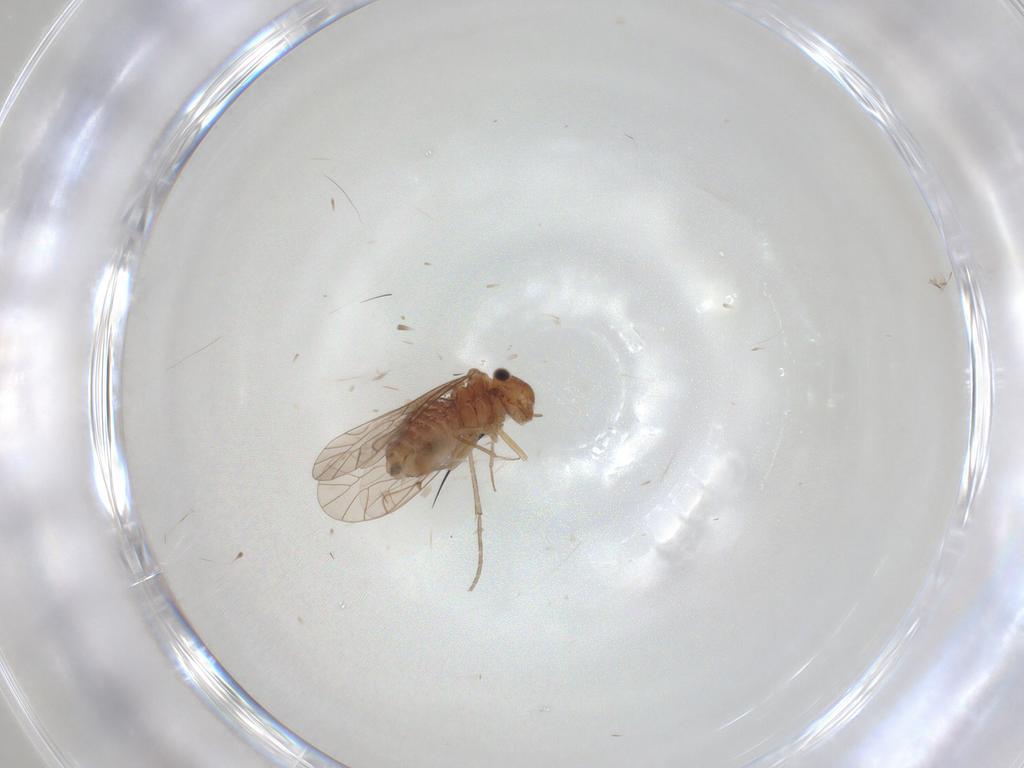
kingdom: Animalia
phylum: Arthropoda
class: Insecta
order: Psocodea
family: Lachesillidae
